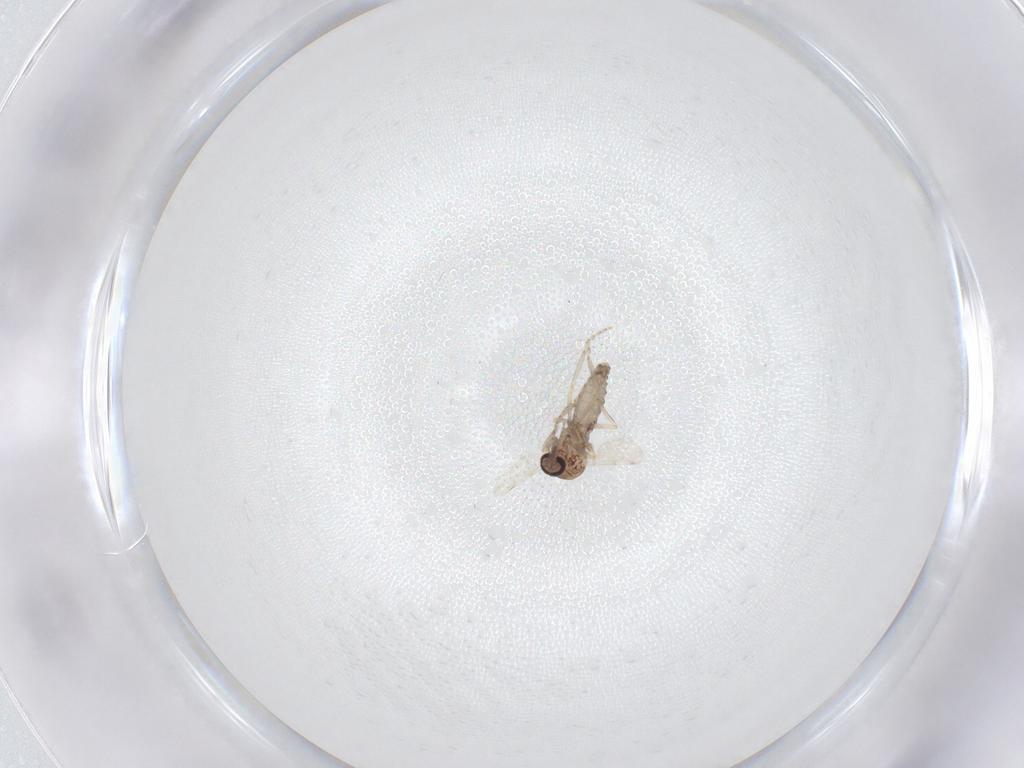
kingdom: Animalia
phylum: Arthropoda
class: Insecta
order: Diptera
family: Ceratopogonidae
